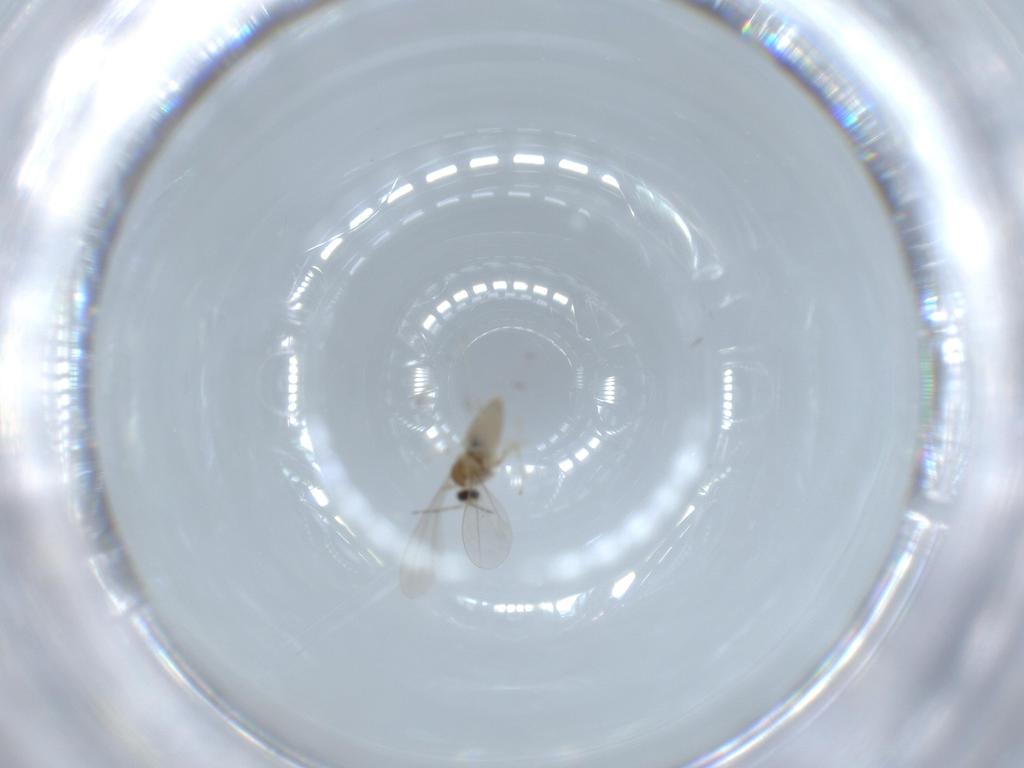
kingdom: Animalia
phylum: Arthropoda
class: Insecta
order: Diptera
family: Cecidomyiidae
